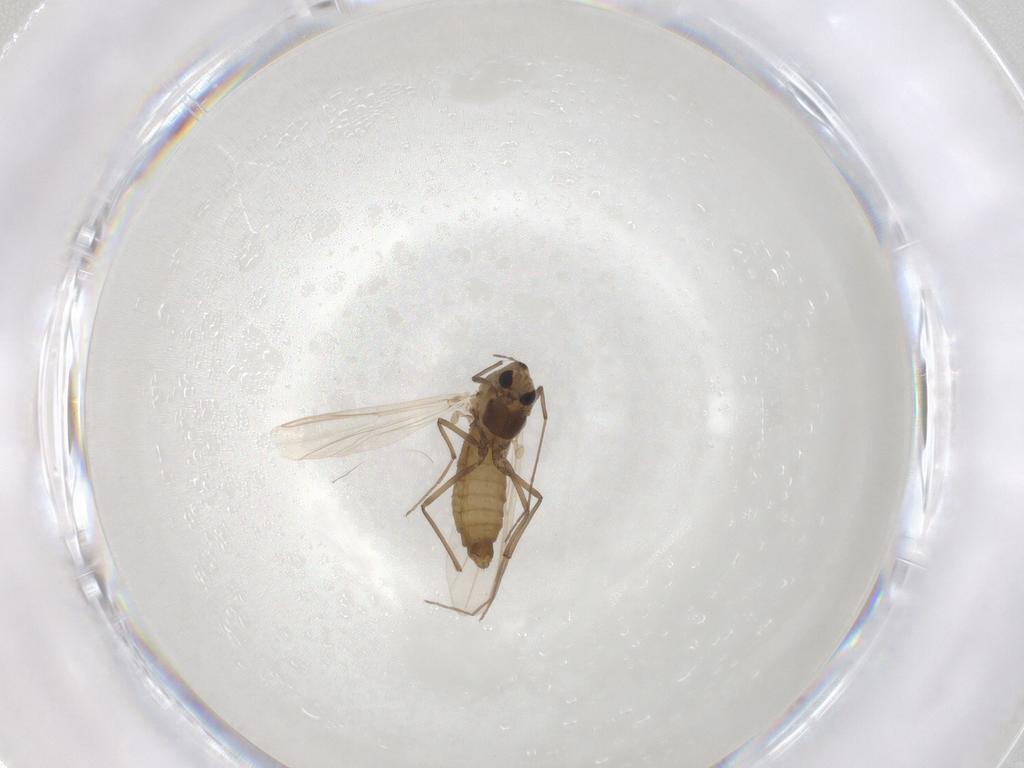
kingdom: Animalia
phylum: Arthropoda
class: Insecta
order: Diptera
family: Chironomidae
